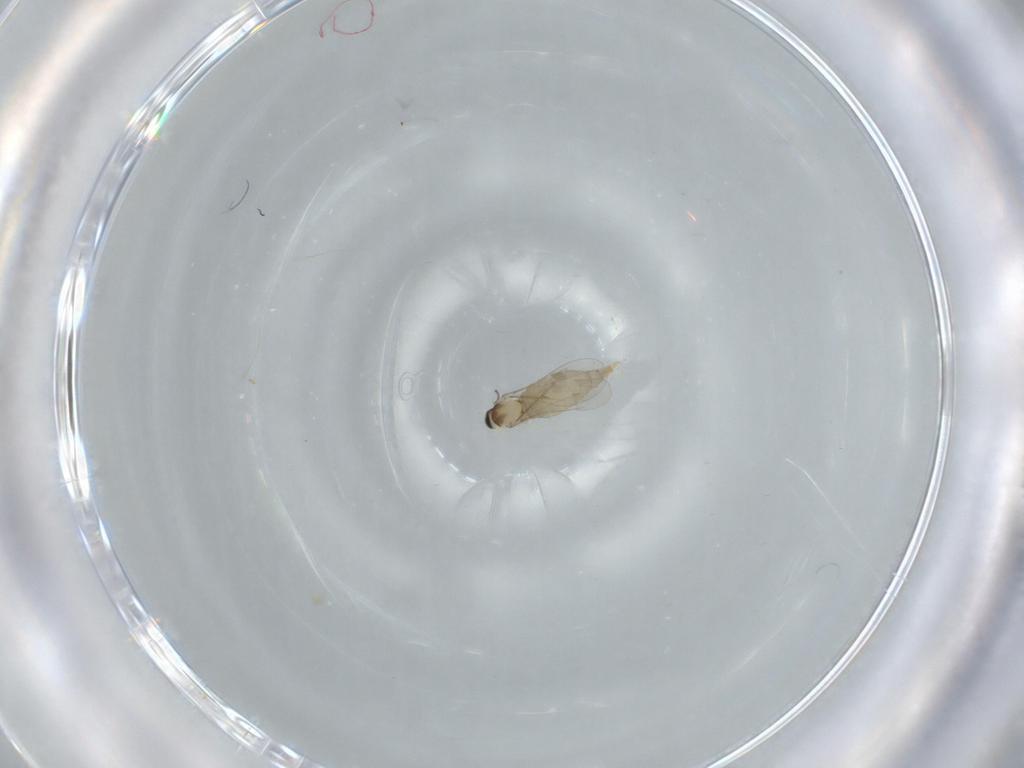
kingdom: Animalia
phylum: Arthropoda
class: Insecta
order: Diptera
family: Cecidomyiidae
